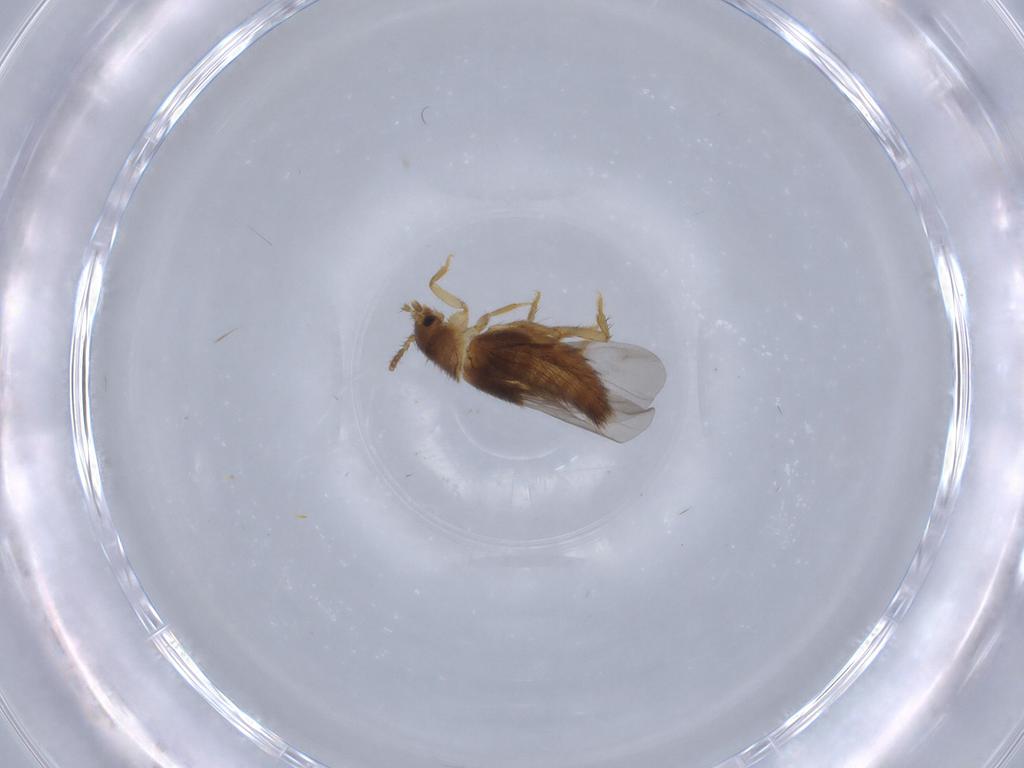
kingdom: Animalia
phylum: Arthropoda
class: Insecta
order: Coleoptera
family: Staphylinidae
